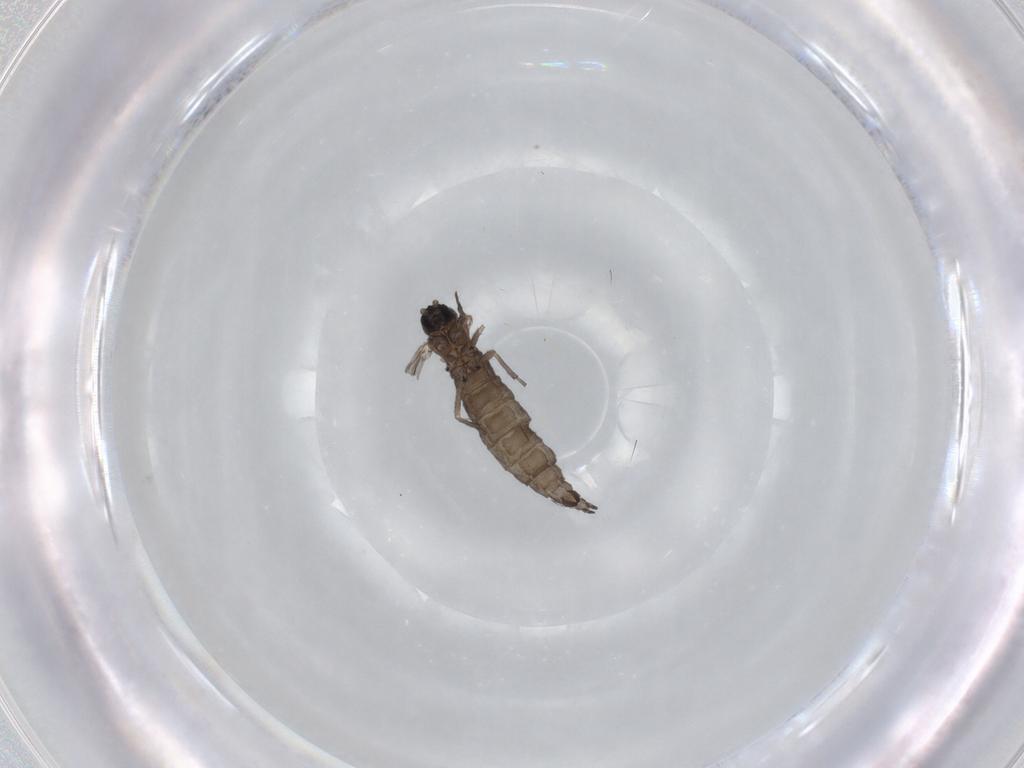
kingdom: Animalia
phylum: Arthropoda
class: Insecta
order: Diptera
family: Sciaridae
